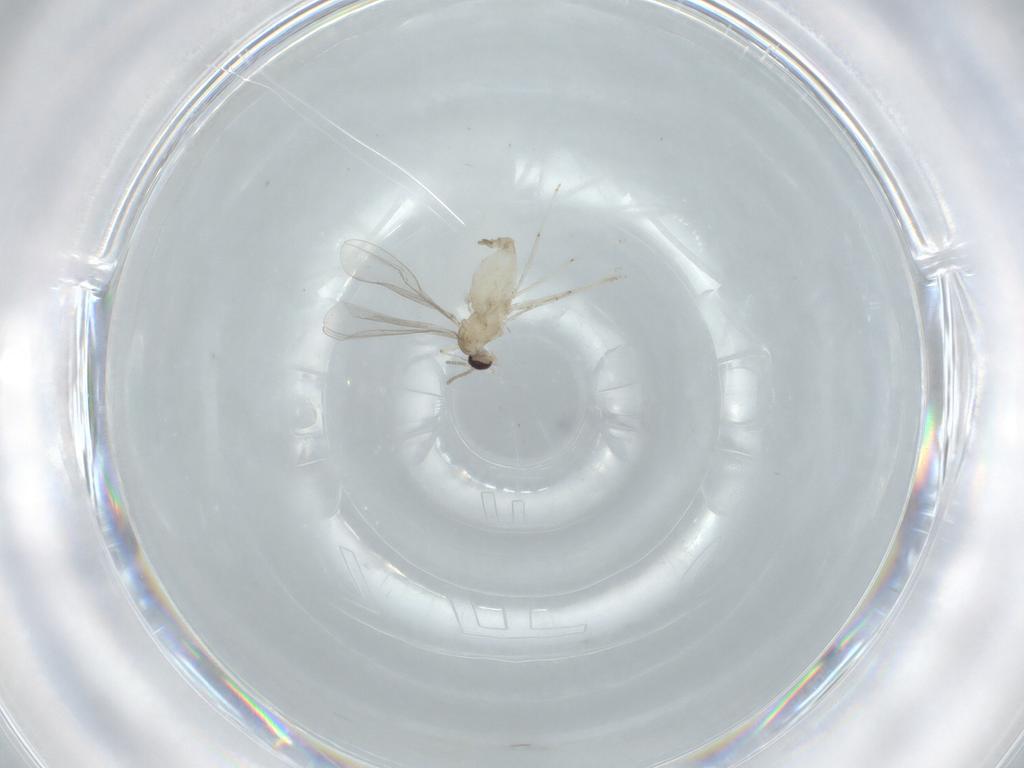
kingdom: Animalia
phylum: Arthropoda
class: Insecta
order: Diptera
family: Cecidomyiidae
